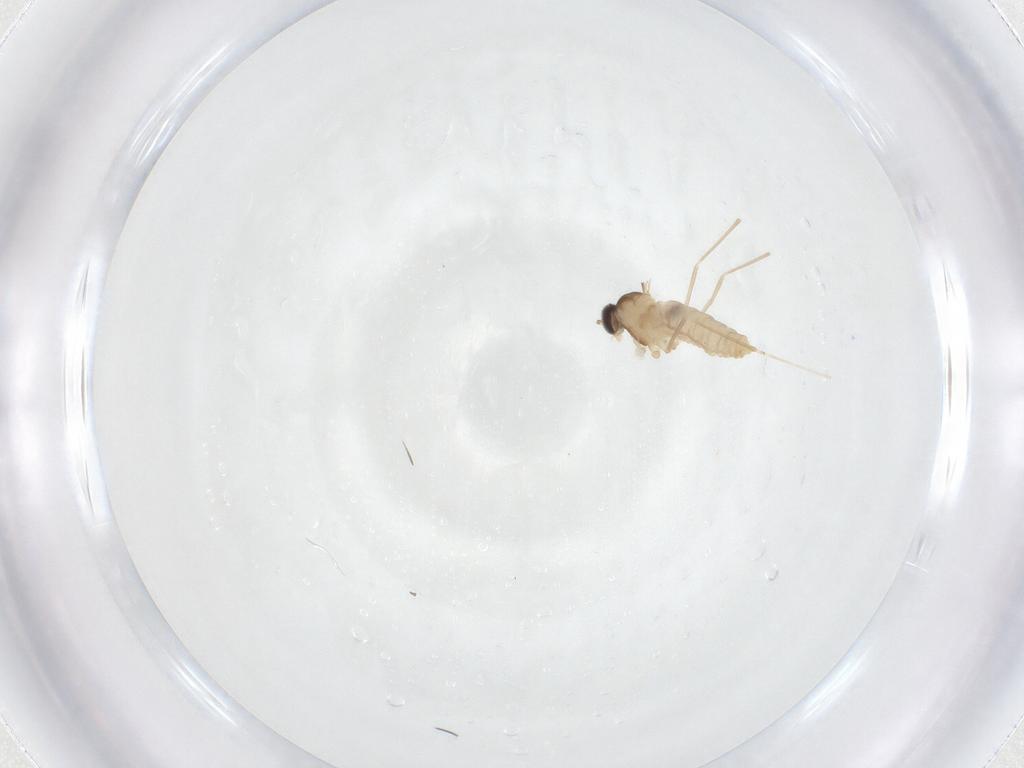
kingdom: Animalia
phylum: Arthropoda
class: Insecta
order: Diptera
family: Cecidomyiidae
